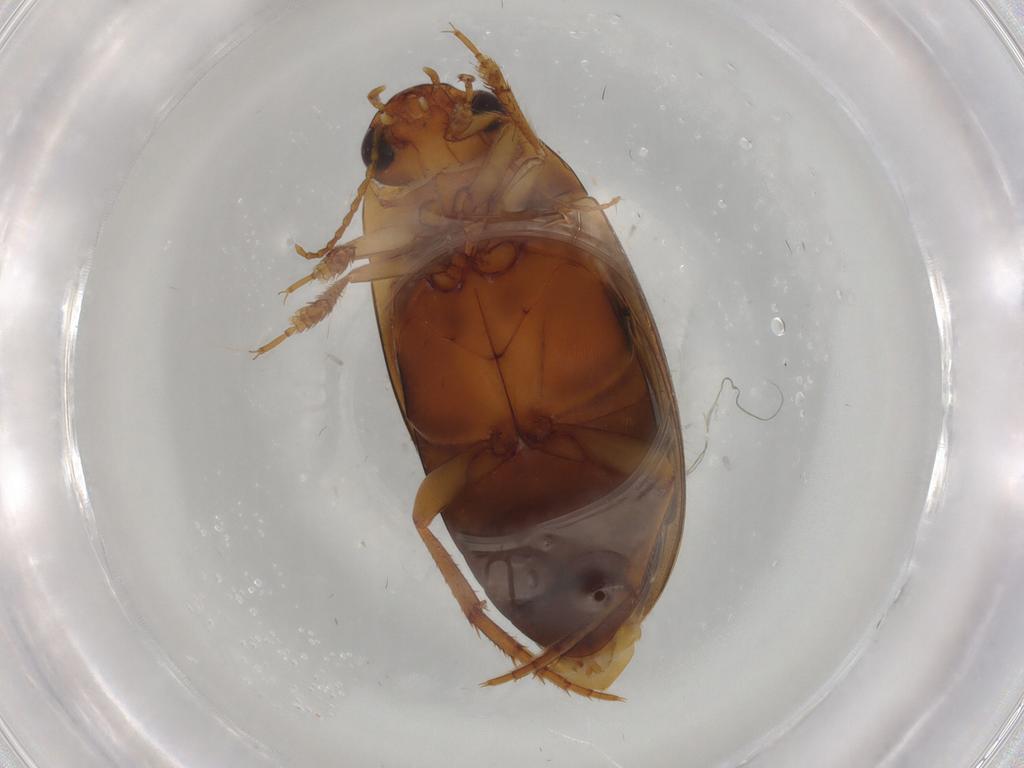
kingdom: Animalia
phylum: Arthropoda
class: Insecta
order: Coleoptera
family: Dytiscidae
